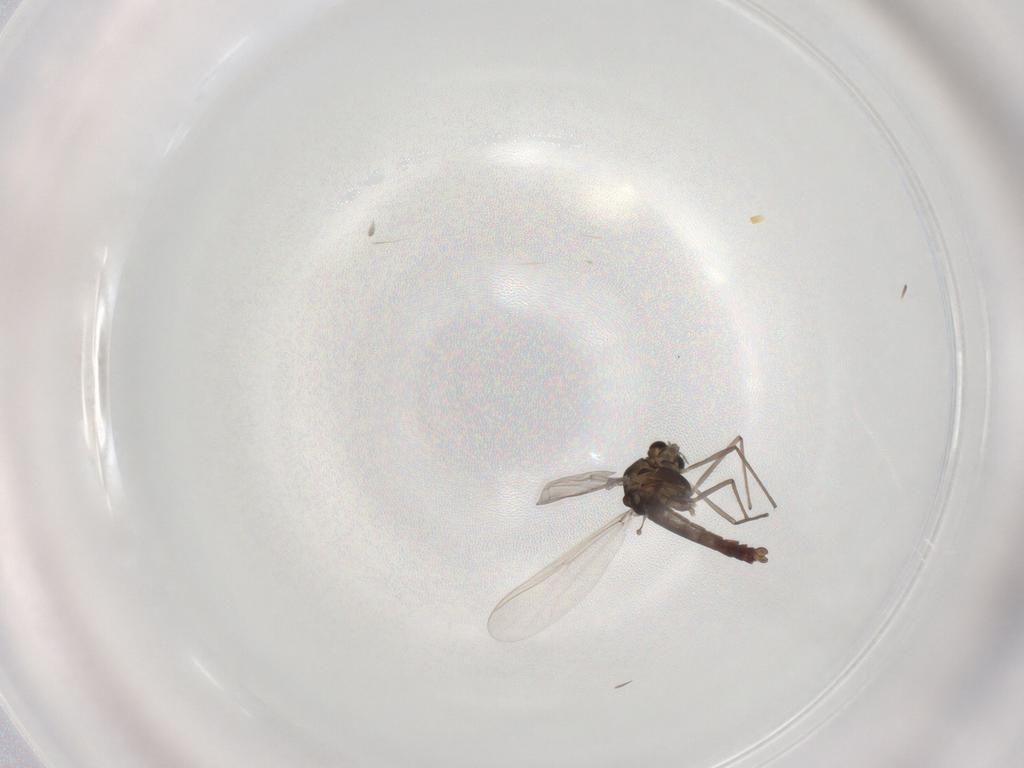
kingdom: Animalia
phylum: Arthropoda
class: Insecta
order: Diptera
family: Chironomidae
